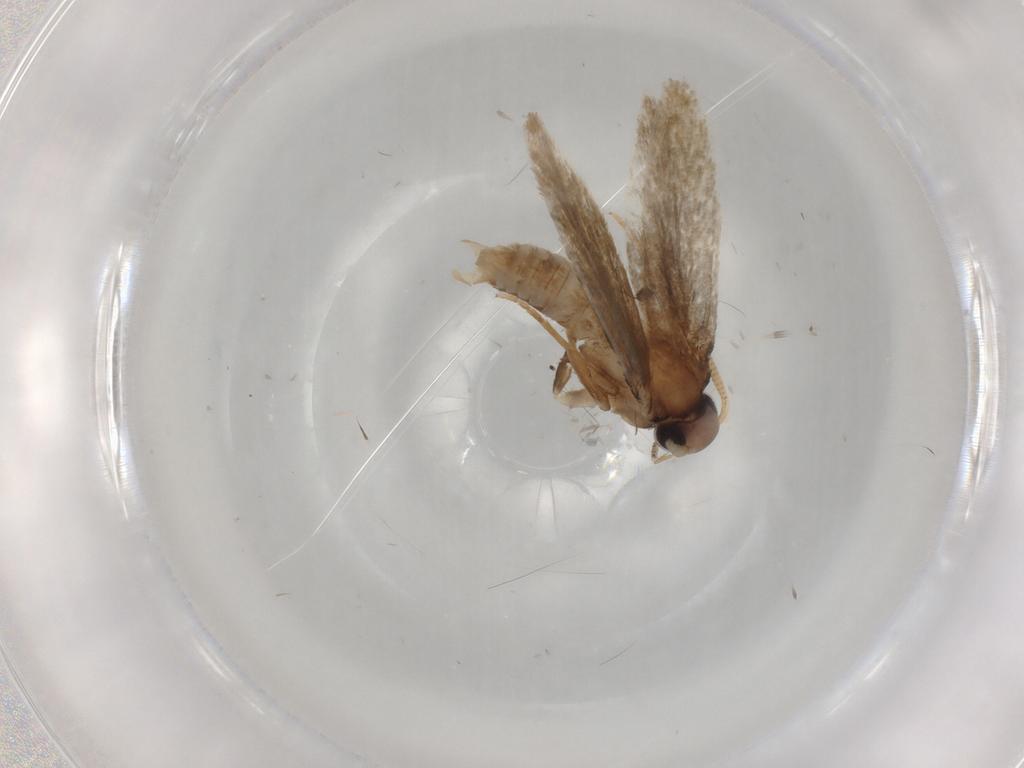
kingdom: Animalia
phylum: Arthropoda
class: Insecta
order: Lepidoptera
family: Coleophoridae
